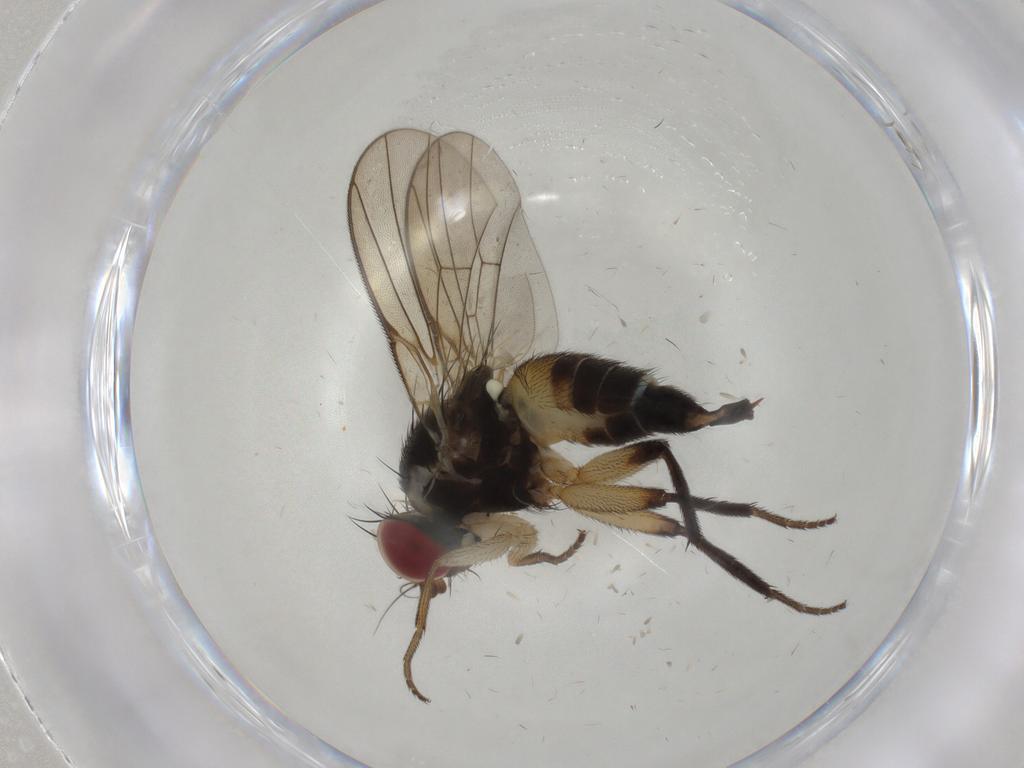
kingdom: Animalia
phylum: Arthropoda
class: Insecta
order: Diptera
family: Agromyzidae
